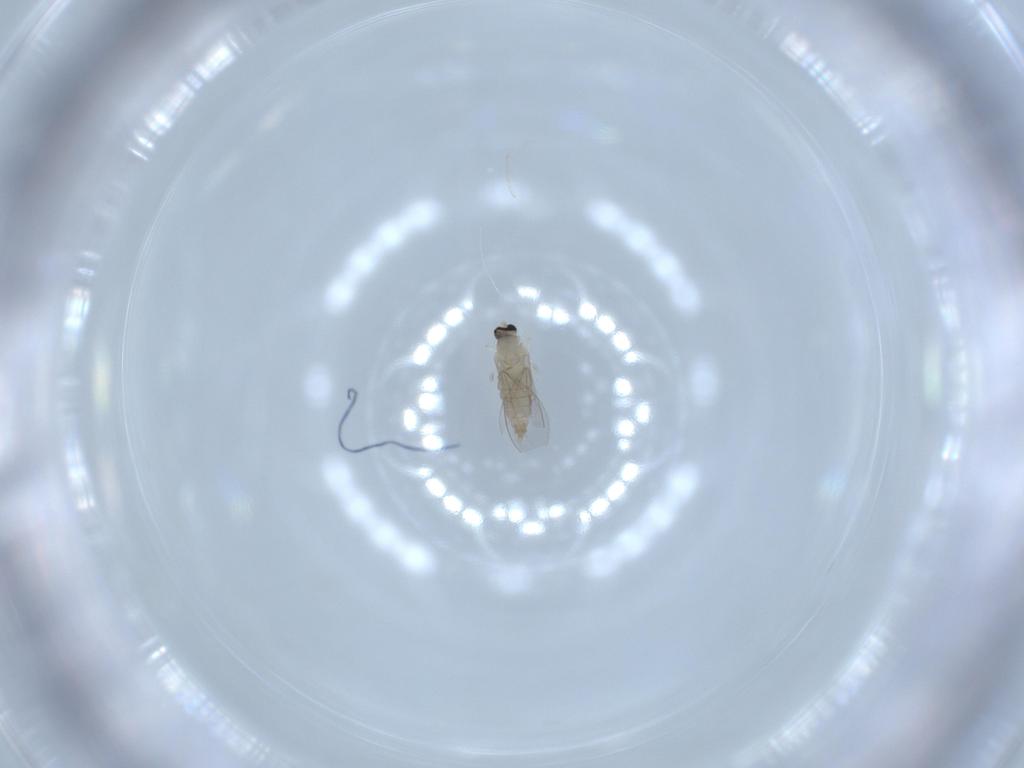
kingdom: Animalia
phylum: Arthropoda
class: Insecta
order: Diptera
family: Cecidomyiidae
